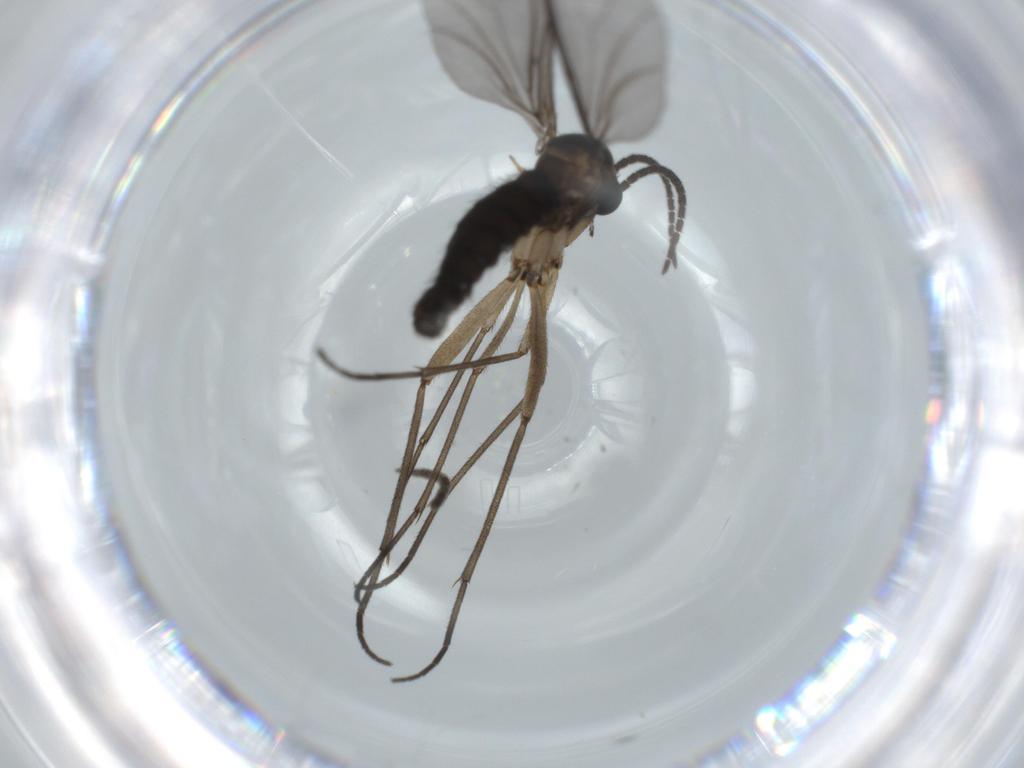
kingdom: Animalia
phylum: Arthropoda
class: Insecta
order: Diptera
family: Sciaridae
